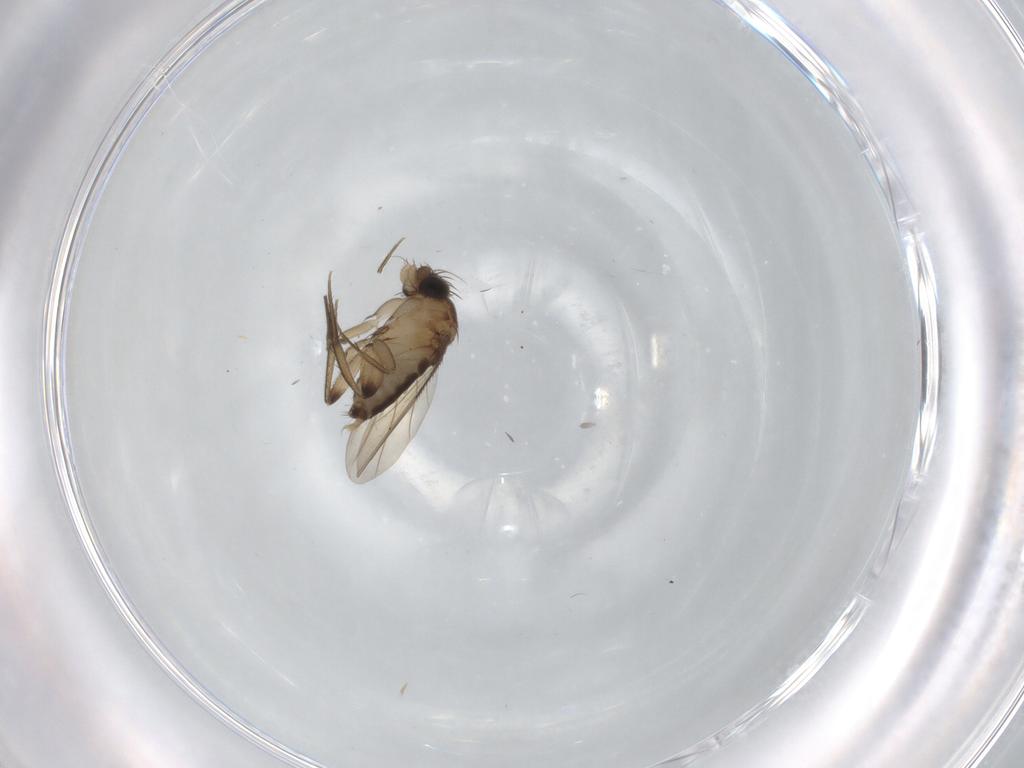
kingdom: Animalia
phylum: Arthropoda
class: Insecta
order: Diptera
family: Phoridae
